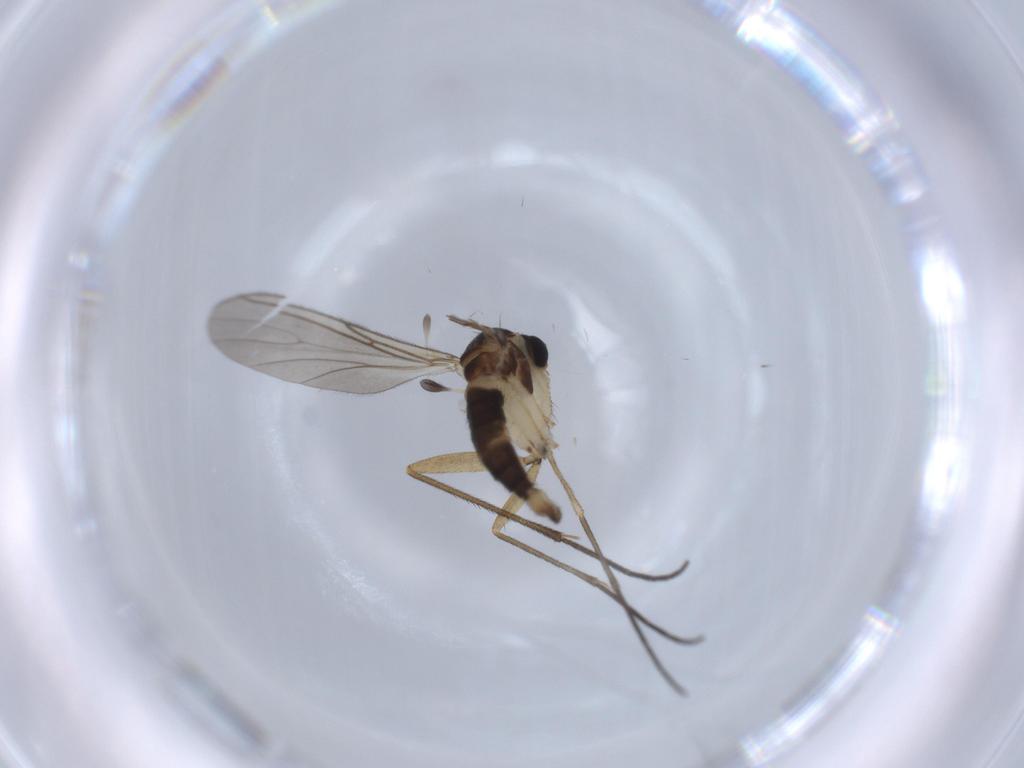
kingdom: Animalia
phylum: Arthropoda
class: Insecta
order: Diptera
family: Sciaridae
